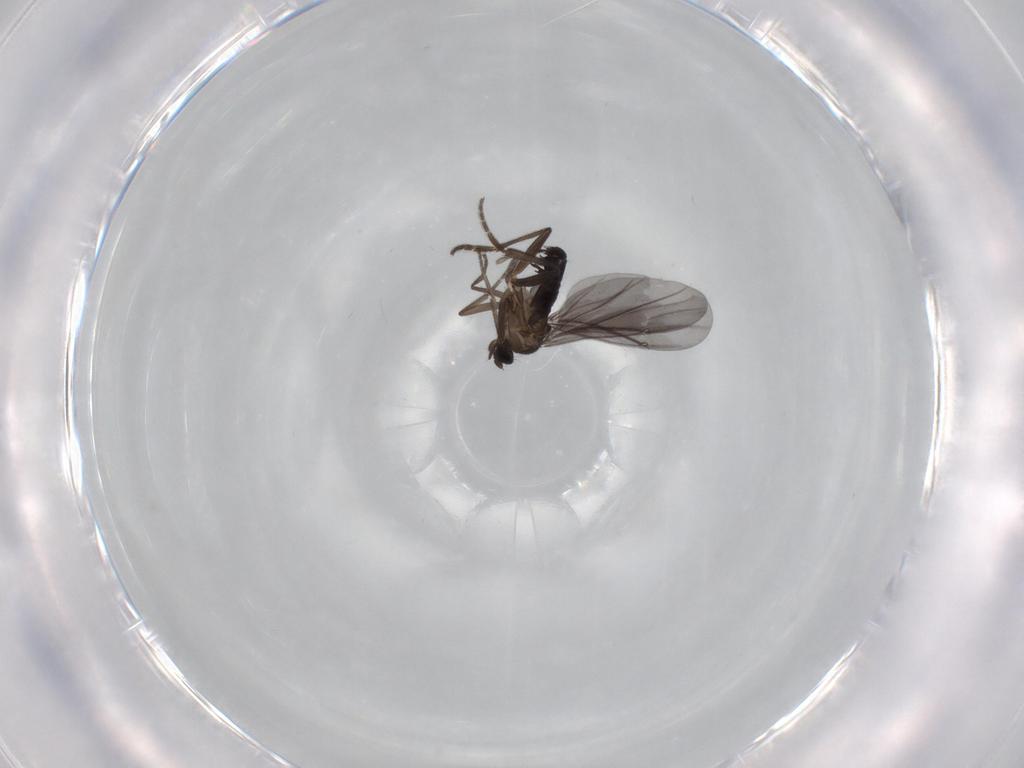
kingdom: Animalia
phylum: Arthropoda
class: Insecta
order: Diptera
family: Phoridae
